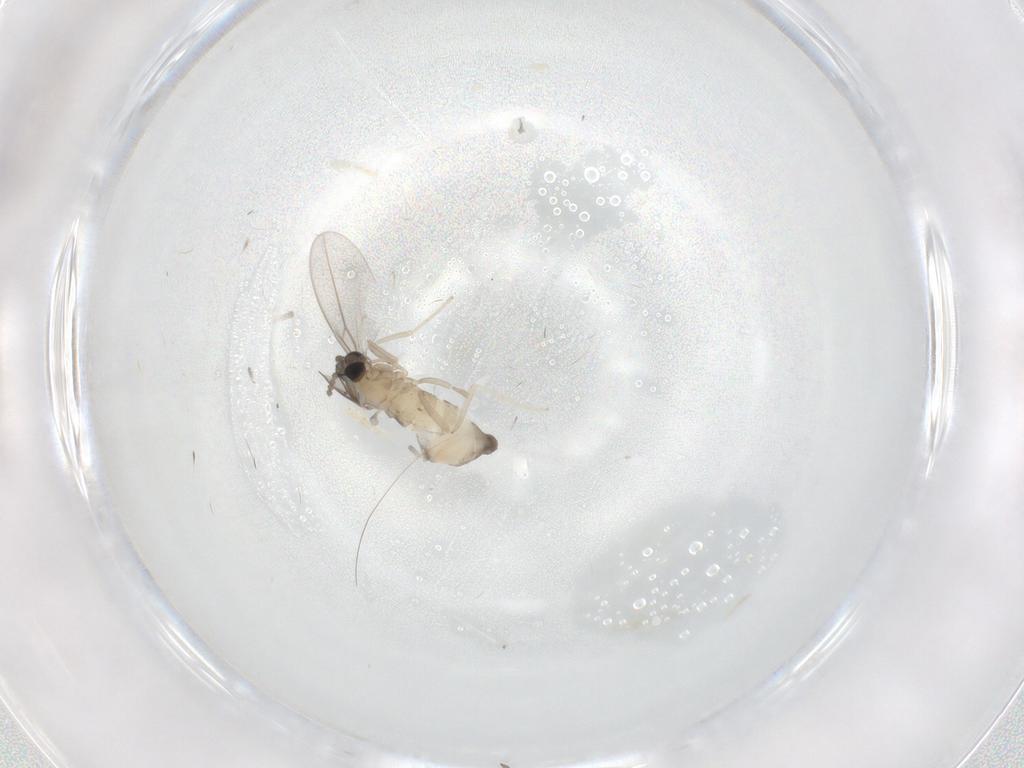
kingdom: Animalia
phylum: Arthropoda
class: Insecta
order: Diptera
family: Cecidomyiidae
